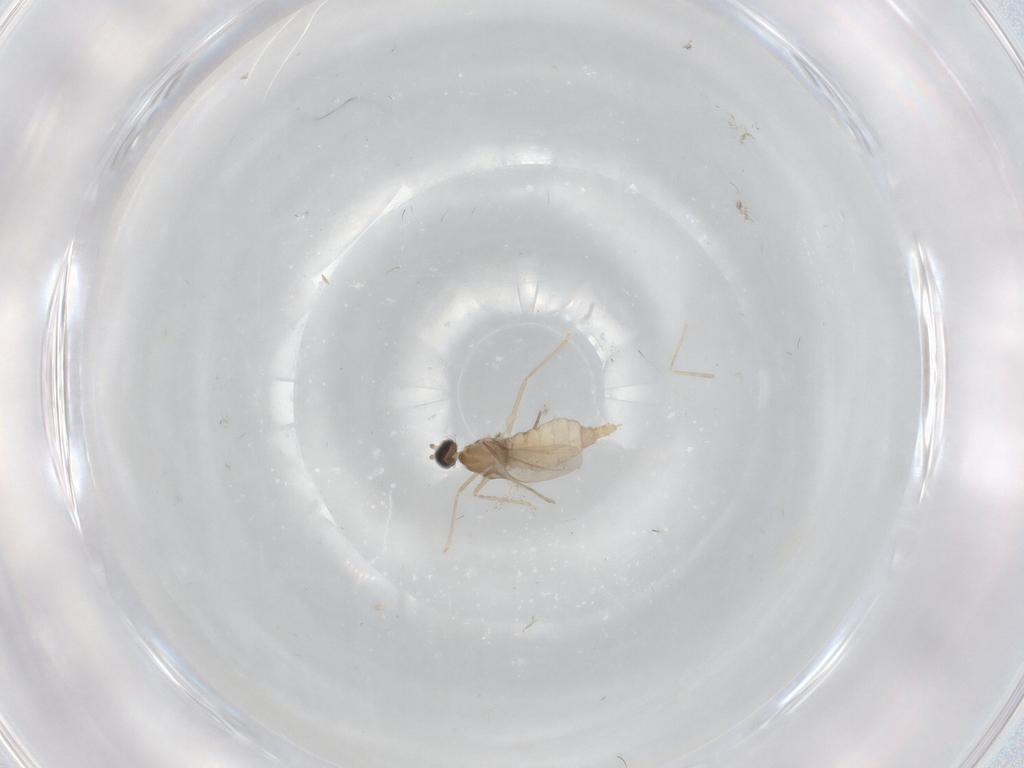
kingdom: Animalia
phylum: Arthropoda
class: Insecta
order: Diptera
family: Cecidomyiidae
